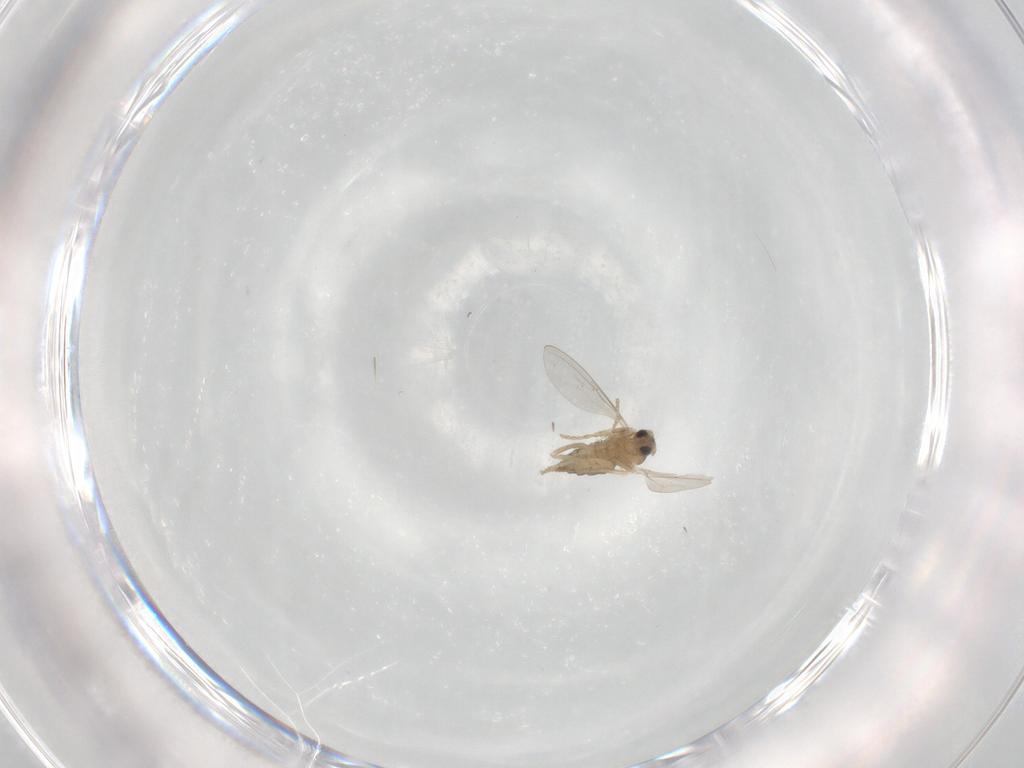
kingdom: Animalia
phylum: Arthropoda
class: Insecta
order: Diptera
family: Cecidomyiidae
